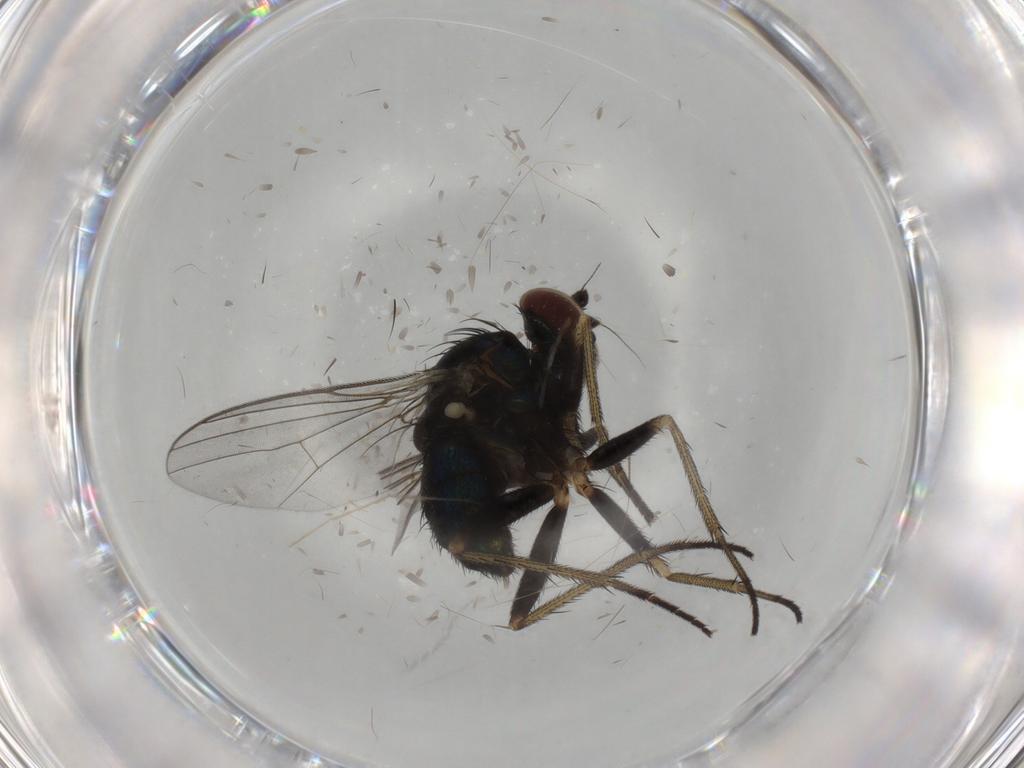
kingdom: Animalia
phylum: Arthropoda
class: Insecta
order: Diptera
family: Dolichopodidae
